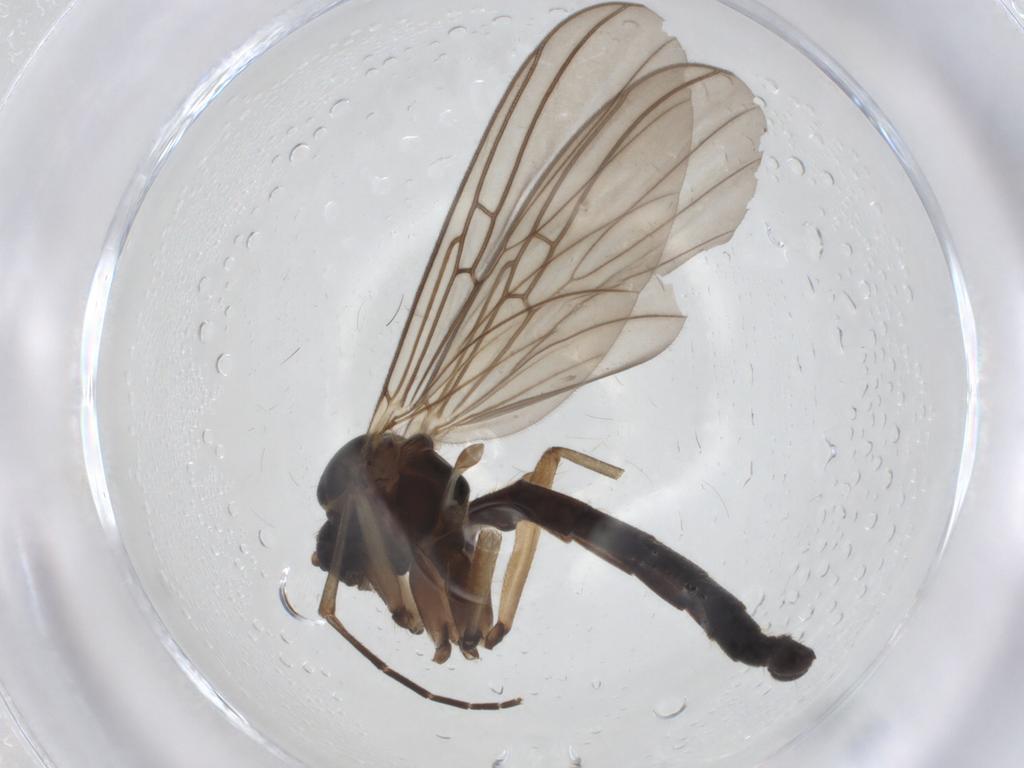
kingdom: Animalia
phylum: Arthropoda
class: Insecta
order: Diptera
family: Mycetophilidae
